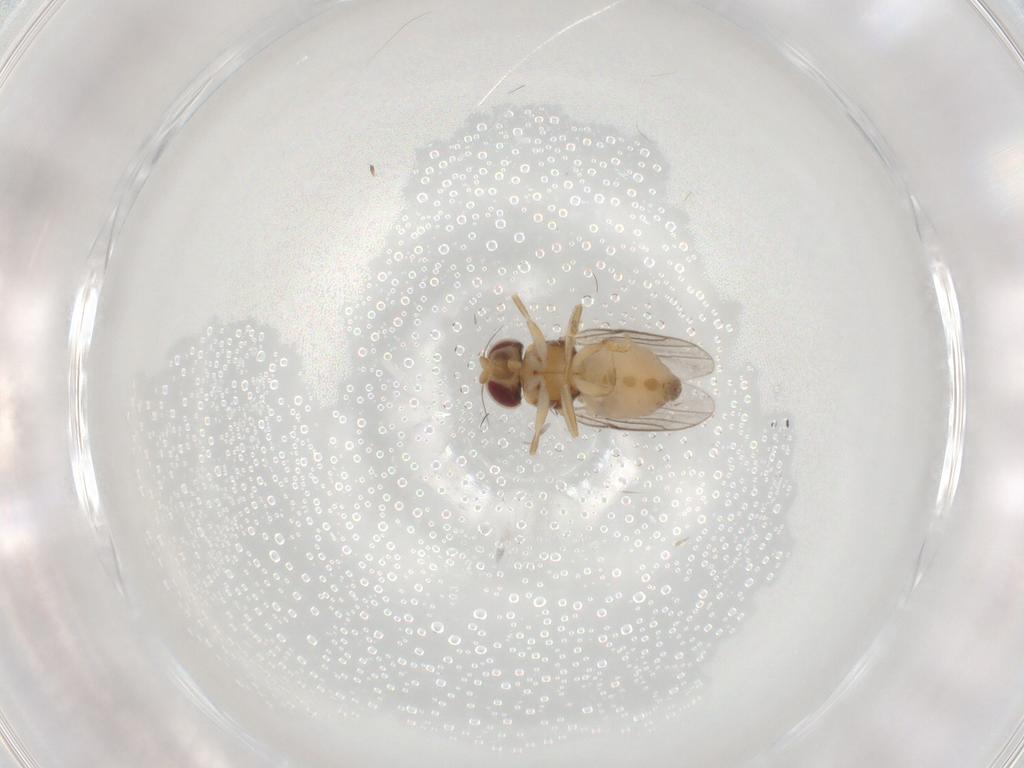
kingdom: Animalia
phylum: Arthropoda
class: Insecta
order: Diptera
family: Chloropidae
